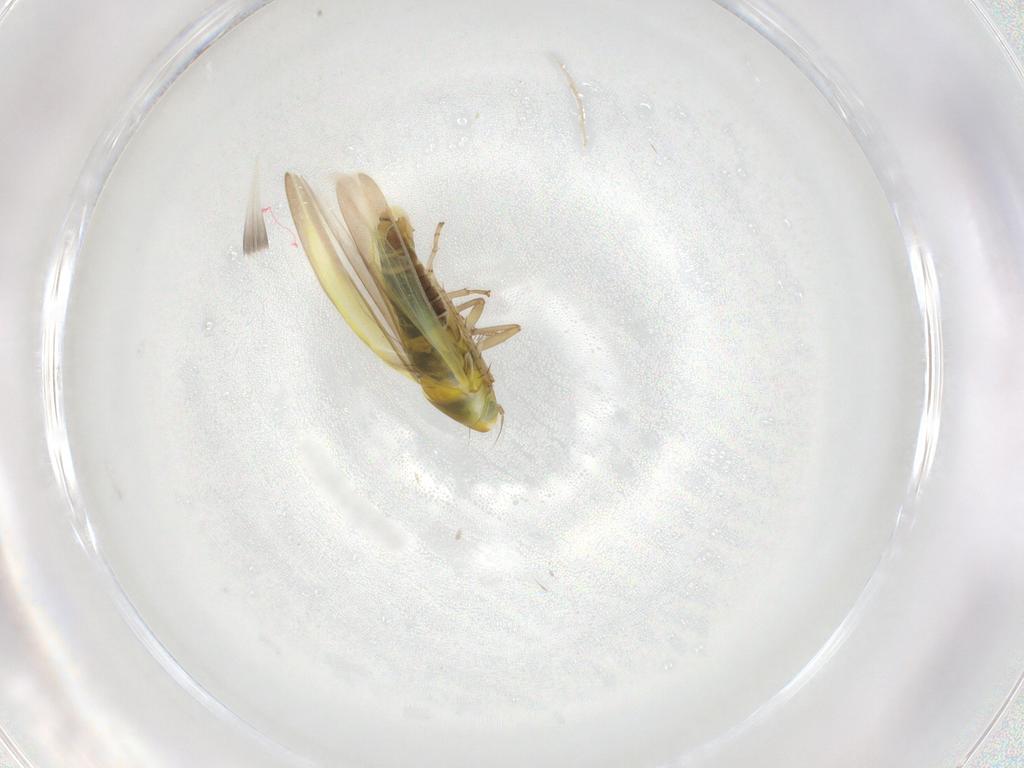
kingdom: Animalia
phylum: Arthropoda
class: Insecta
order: Hemiptera
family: Cicadellidae
